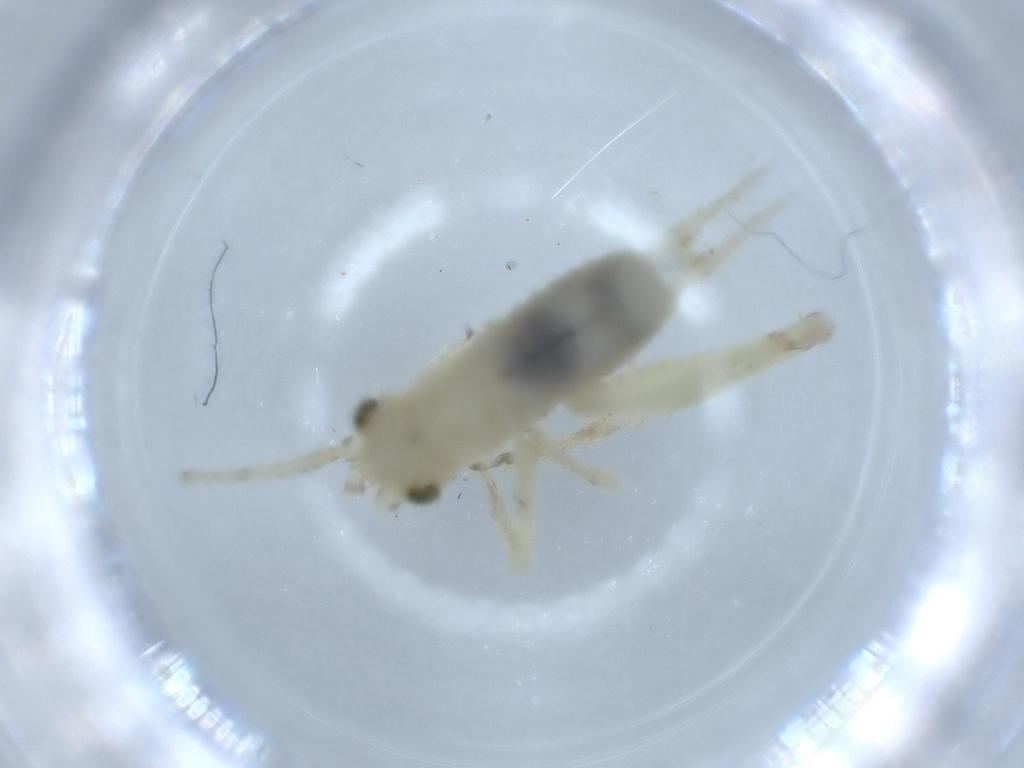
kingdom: Animalia
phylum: Arthropoda
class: Insecta
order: Orthoptera
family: Trigonidiidae
